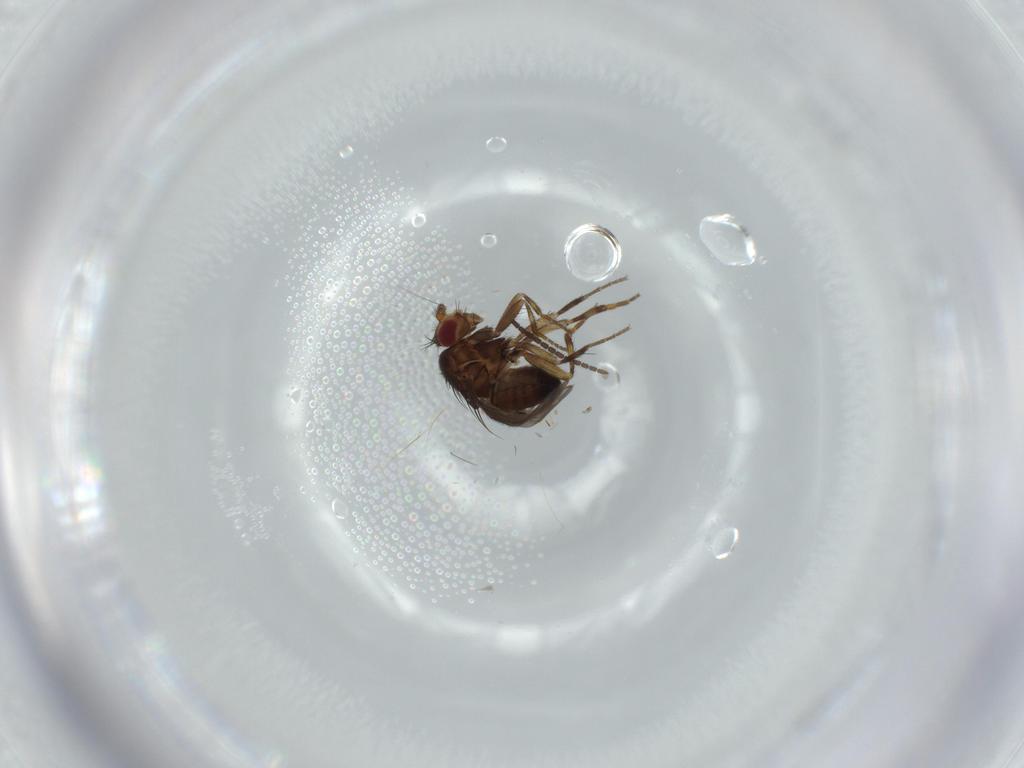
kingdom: Animalia
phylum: Arthropoda
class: Insecta
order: Diptera
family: Sciaridae
